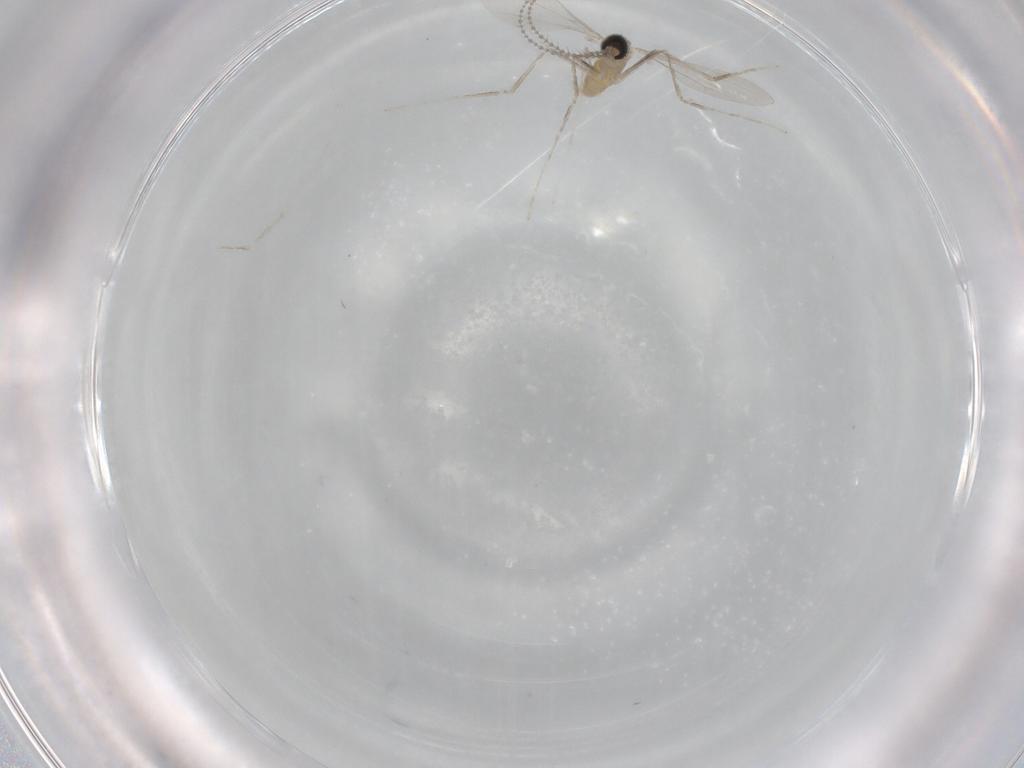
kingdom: Animalia
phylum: Arthropoda
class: Insecta
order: Diptera
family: Cecidomyiidae
